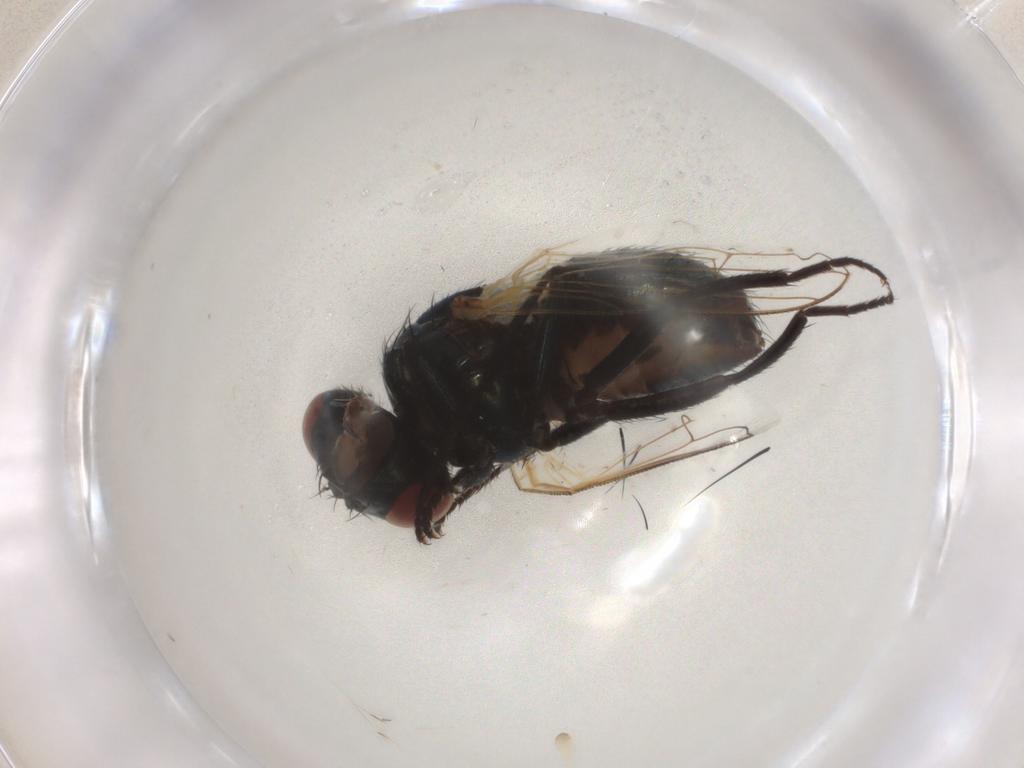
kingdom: Animalia
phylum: Arthropoda
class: Insecta
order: Diptera
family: Muscidae
